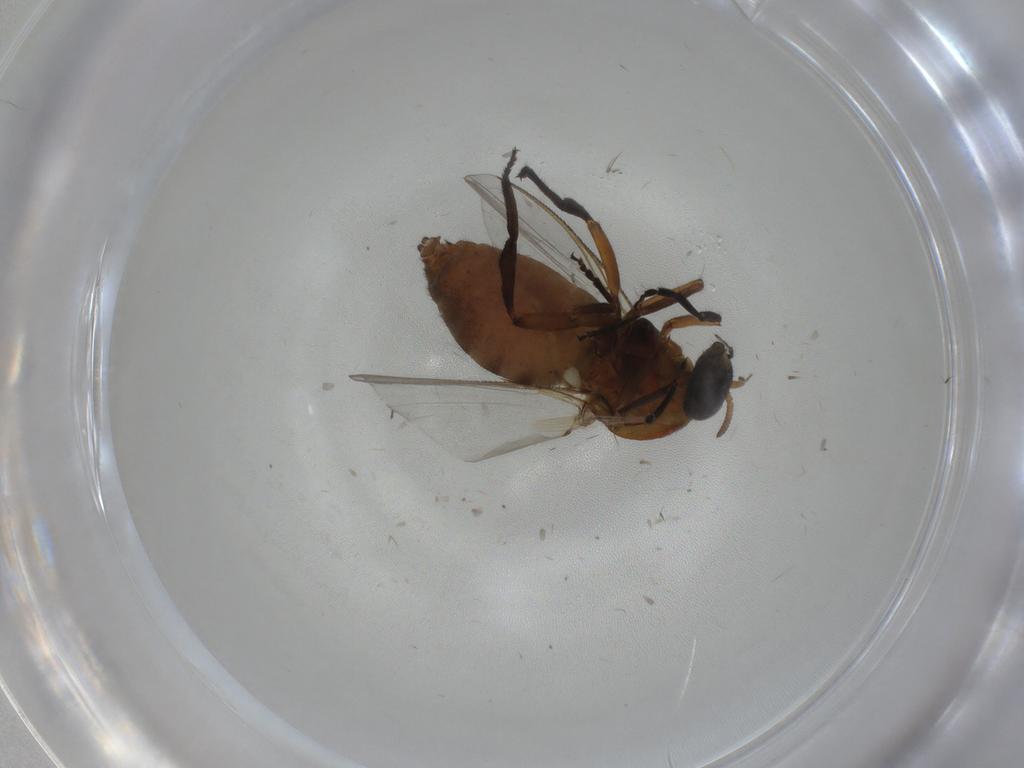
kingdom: Animalia
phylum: Arthropoda
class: Insecta
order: Diptera
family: Ephydridae
